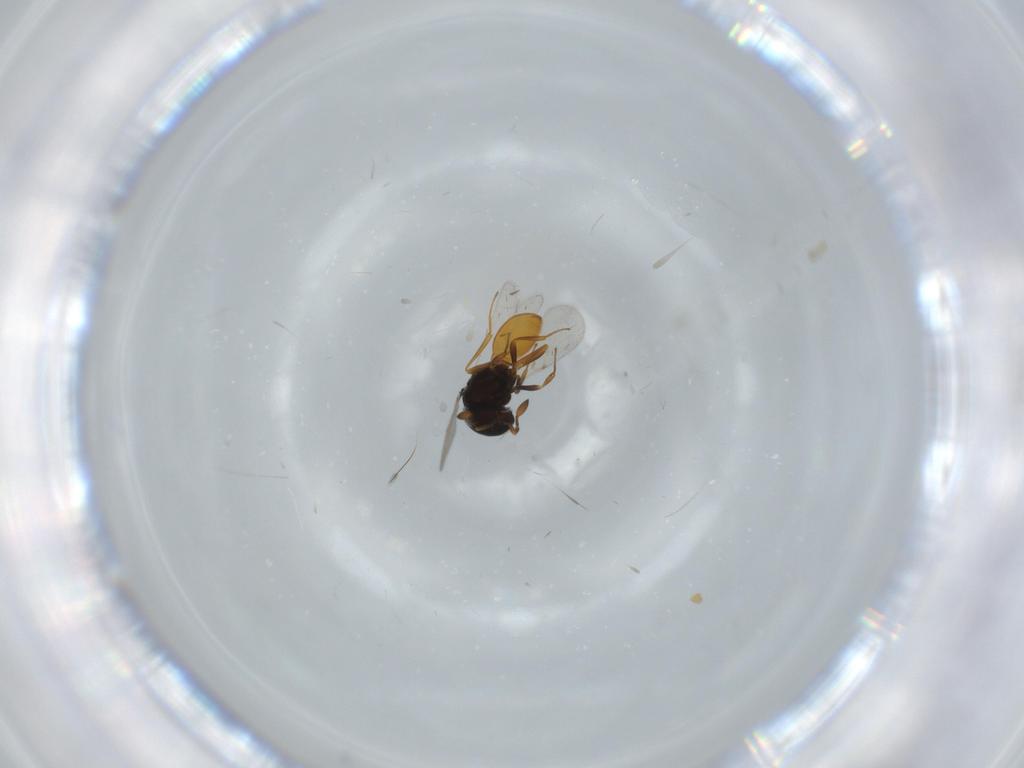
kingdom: Animalia
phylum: Arthropoda
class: Insecta
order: Hymenoptera
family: Scelionidae
